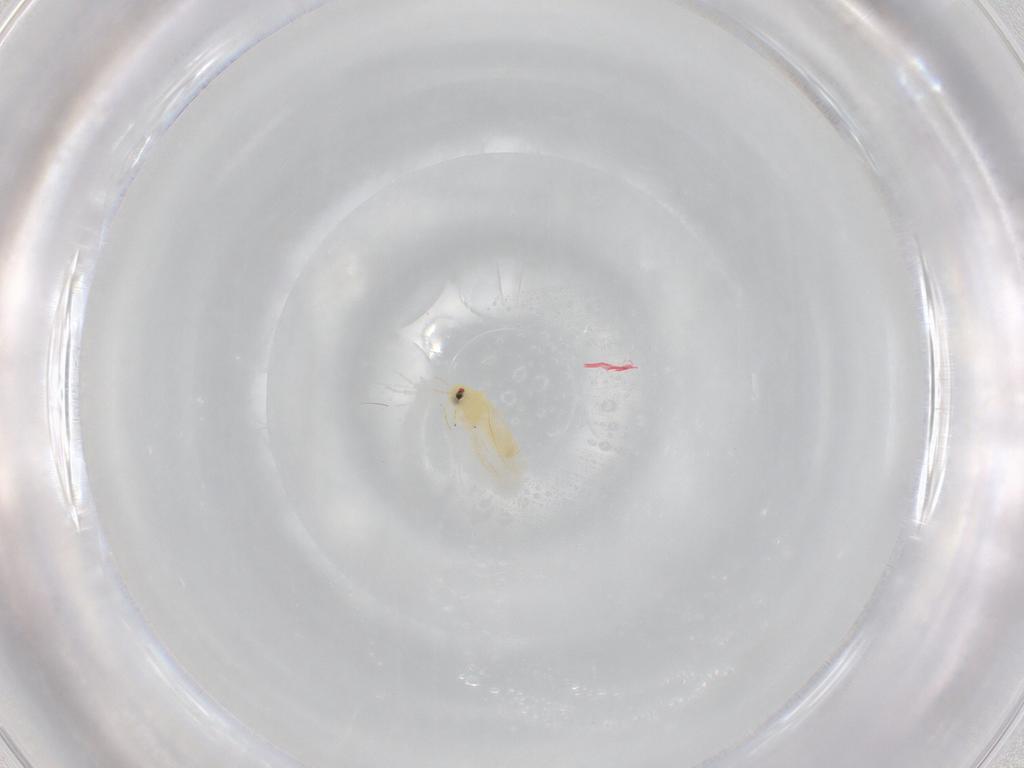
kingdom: Animalia
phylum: Arthropoda
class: Insecta
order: Hemiptera
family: Aleyrodidae
